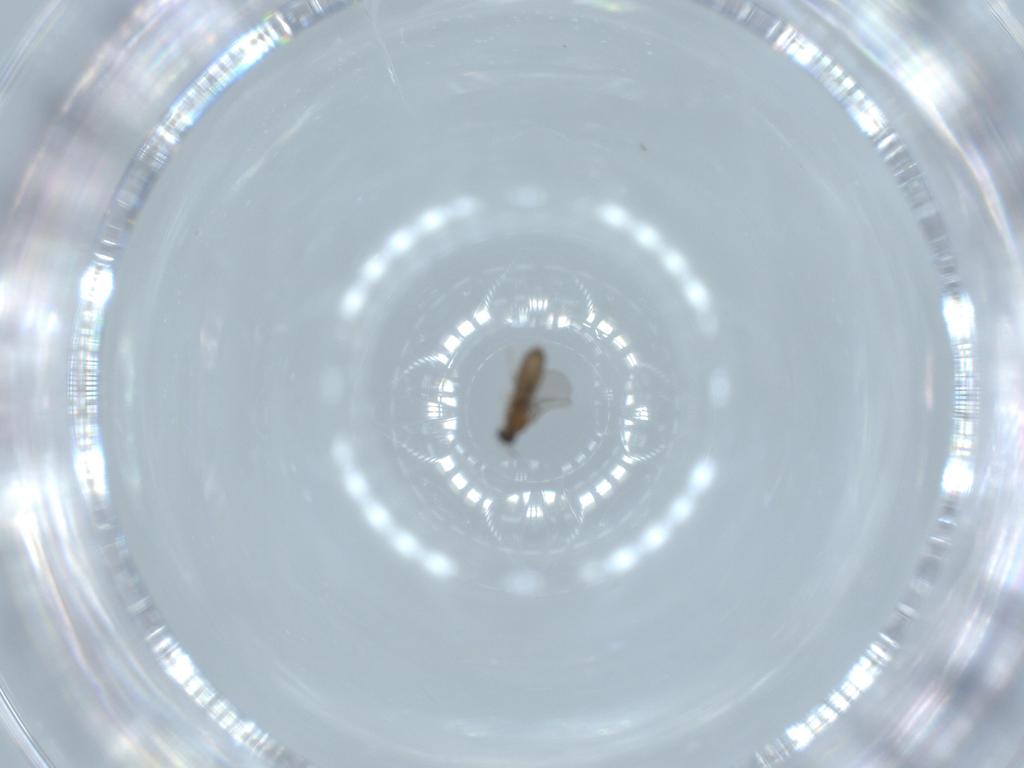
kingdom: Animalia
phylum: Arthropoda
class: Insecta
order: Diptera
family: Cecidomyiidae
